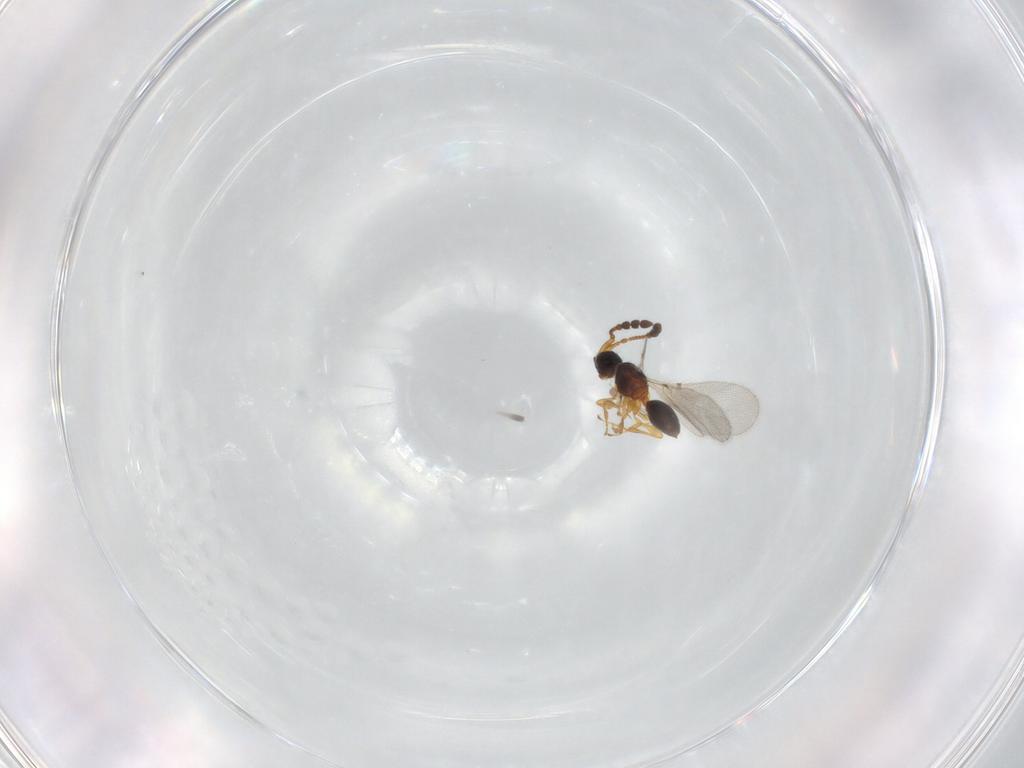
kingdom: Animalia
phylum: Arthropoda
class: Insecta
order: Hymenoptera
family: Diapriidae
